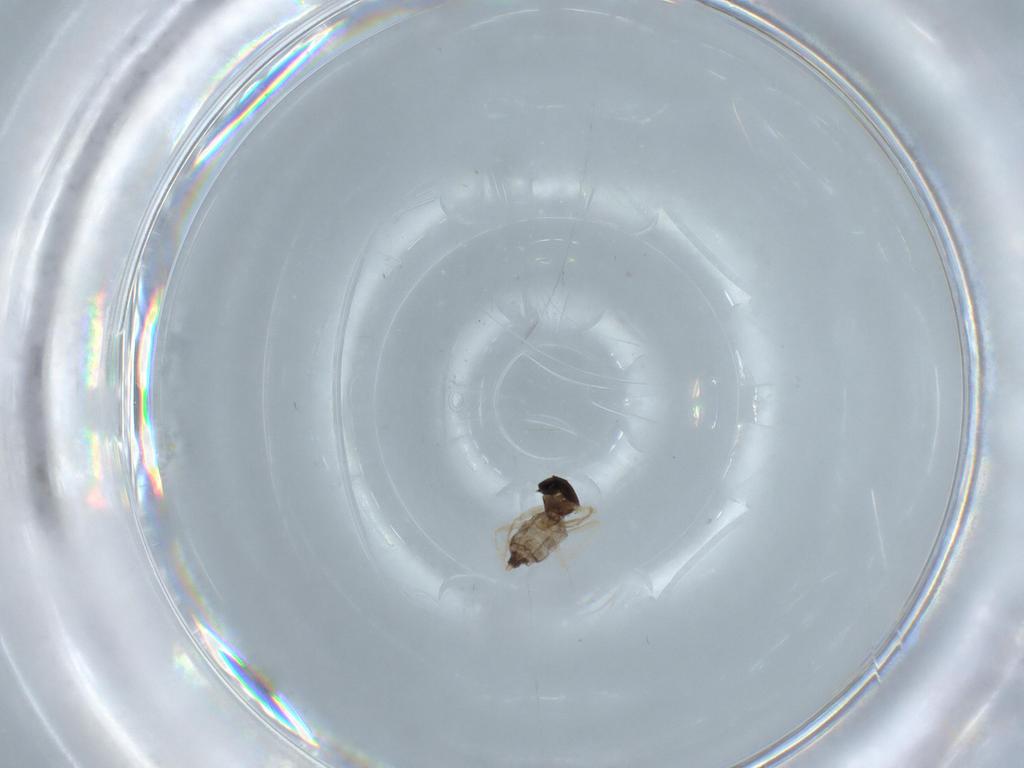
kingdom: Animalia
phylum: Arthropoda
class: Insecta
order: Diptera
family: Cecidomyiidae
